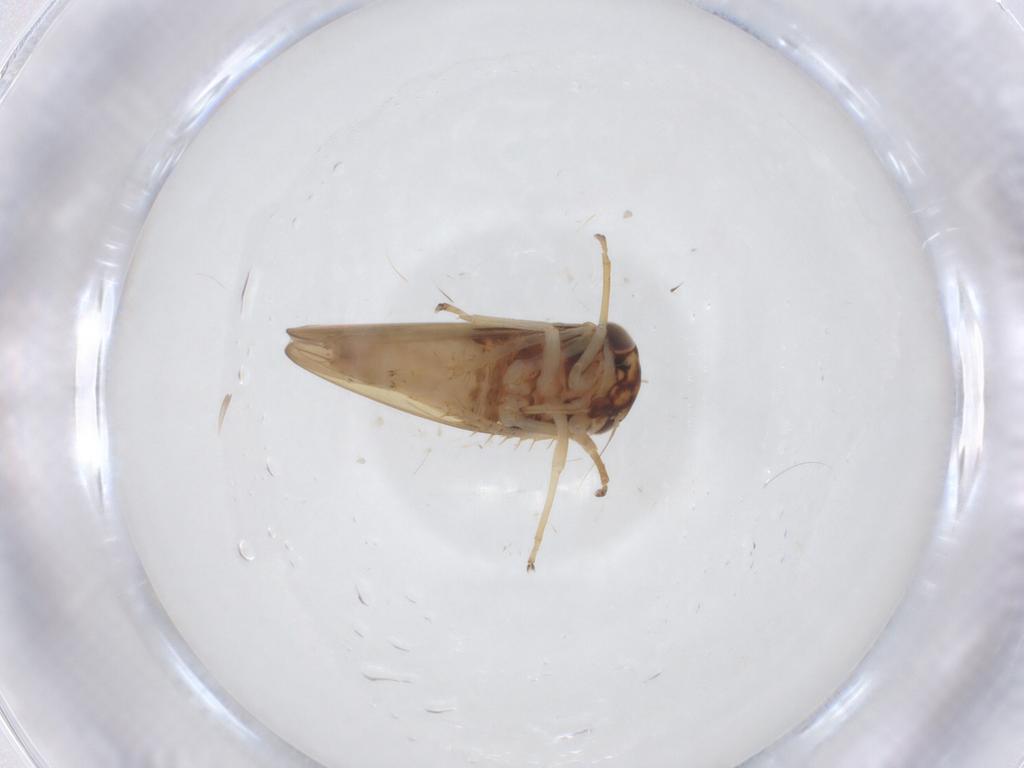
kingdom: Animalia
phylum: Arthropoda
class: Insecta
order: Hemiptera
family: Cicadellidae
